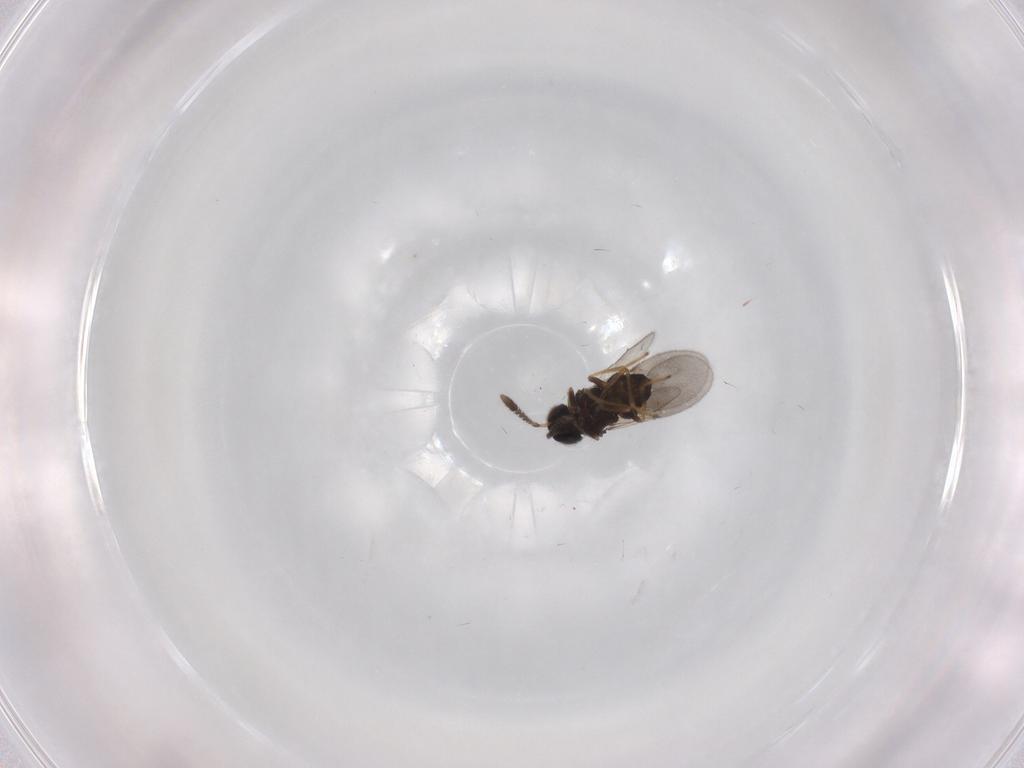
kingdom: Animalia
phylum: Arthropoda
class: Insecta
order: Hymenoptera
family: Encyrtidae
